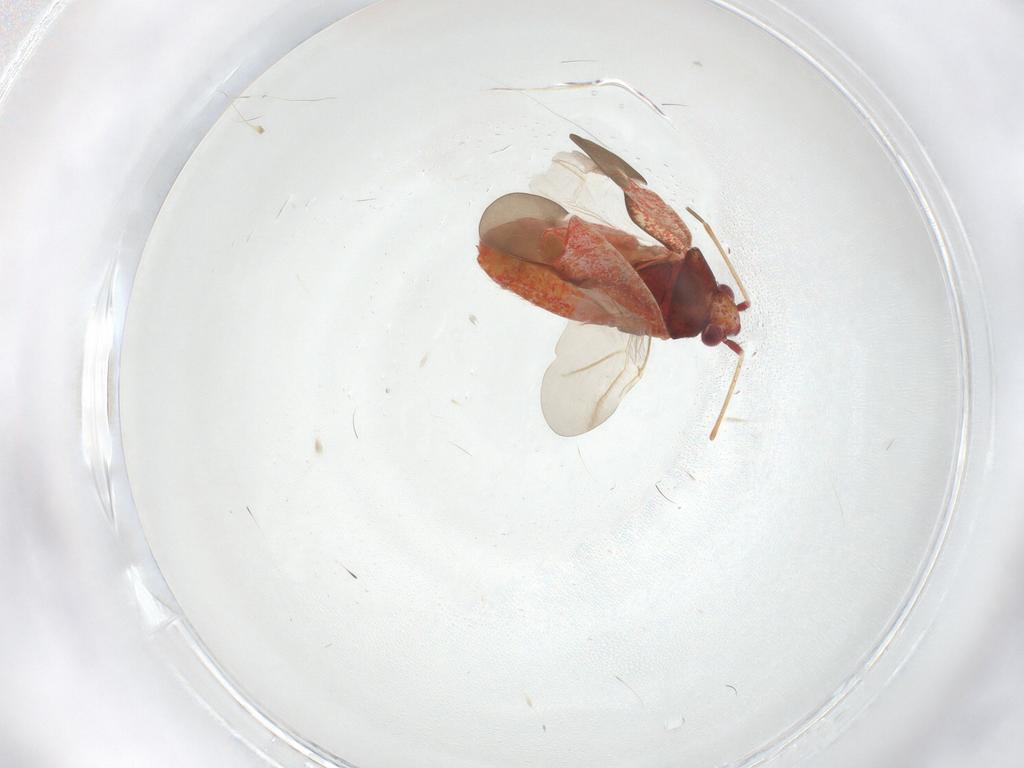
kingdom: Animalia
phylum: Arthropoda
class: Insecta
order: Hemiptera
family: Miridae
